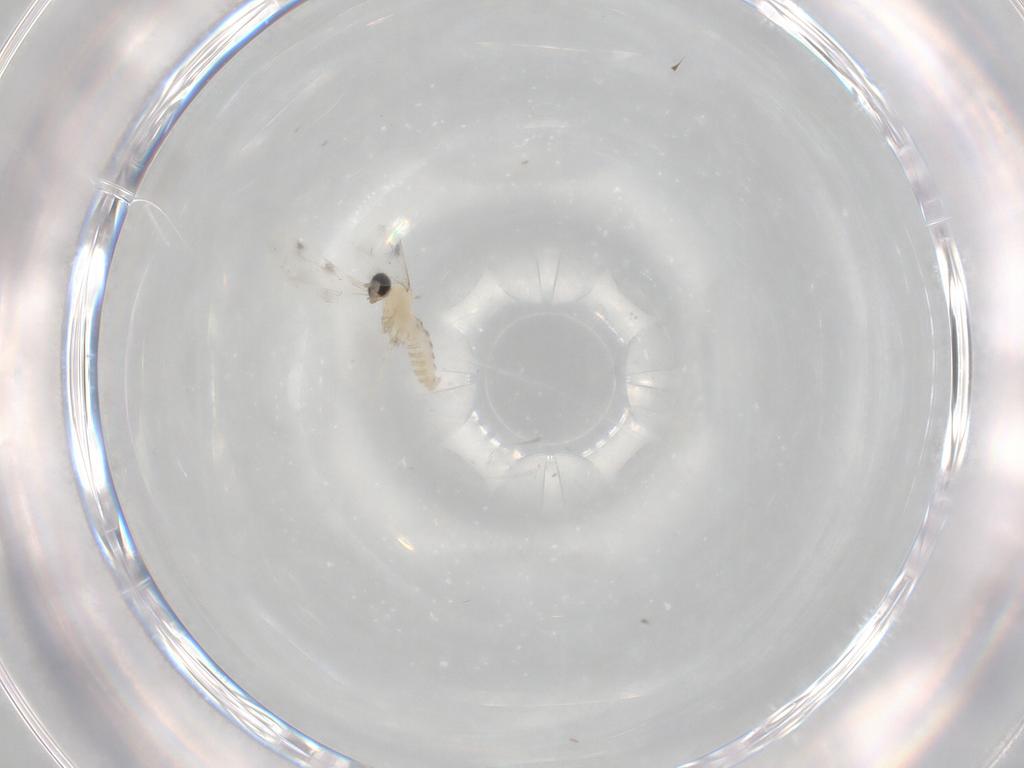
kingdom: Animalia
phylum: Arthropoda
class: Insecta
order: Diptera
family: Cecidomyiidae
